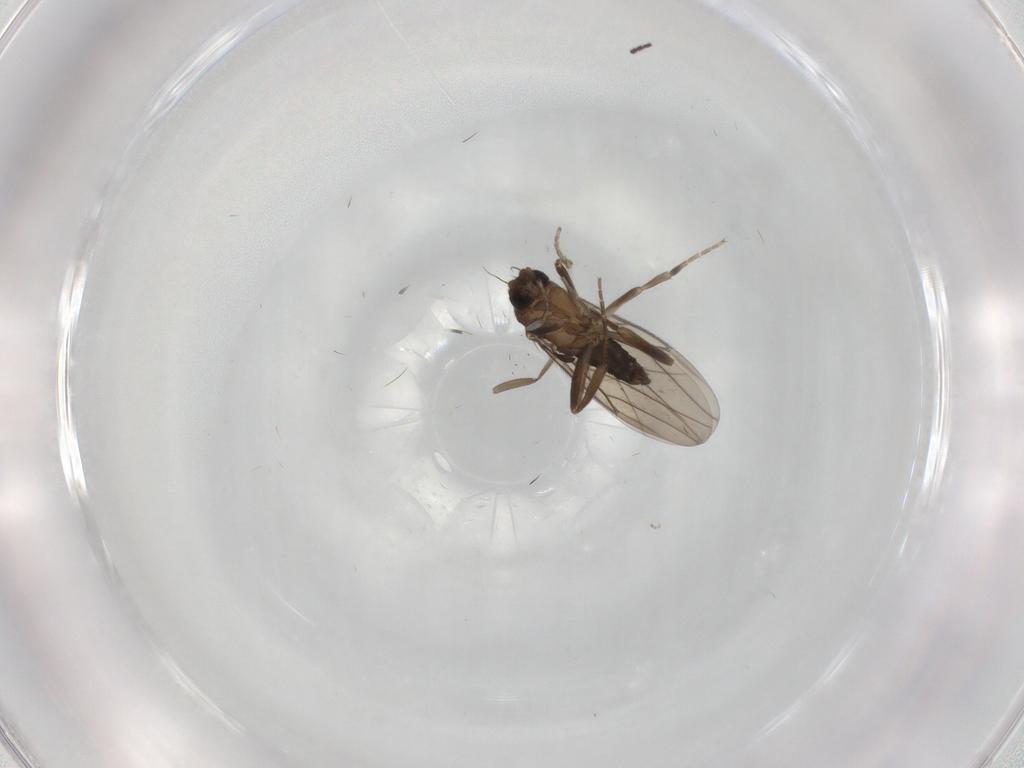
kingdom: Animalia
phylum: Arthropoda
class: Insecta
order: Diptera
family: Phoridae
